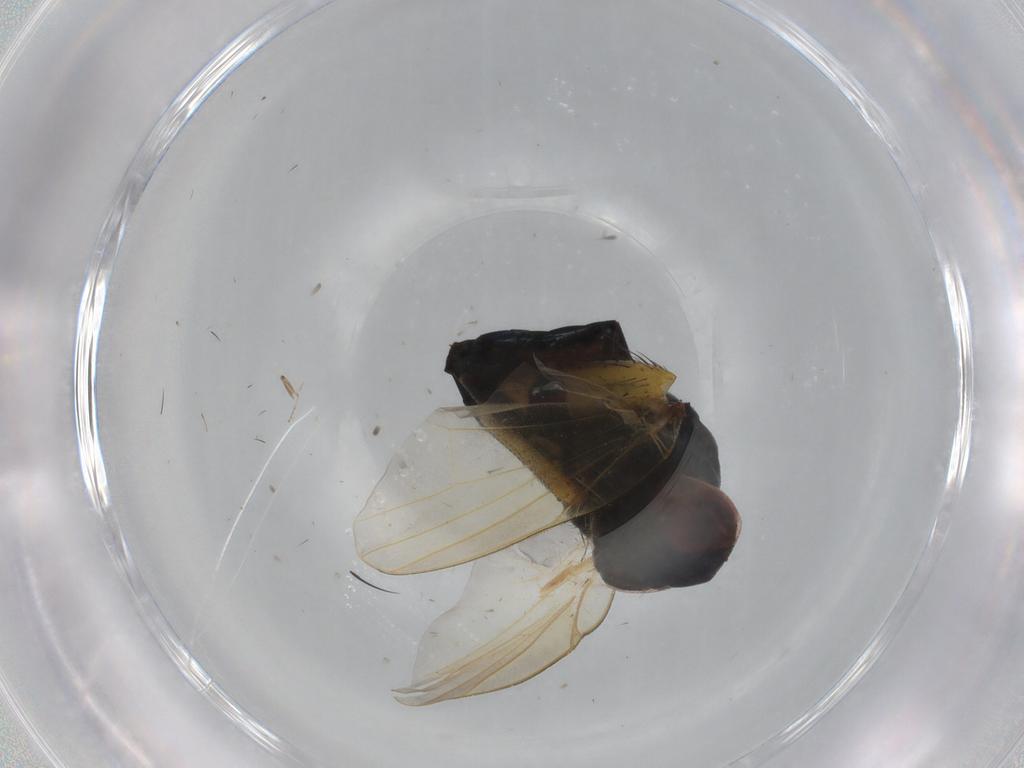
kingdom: Animalia
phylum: Arthropoda
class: Insecta
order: Diptera
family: Muscidae
